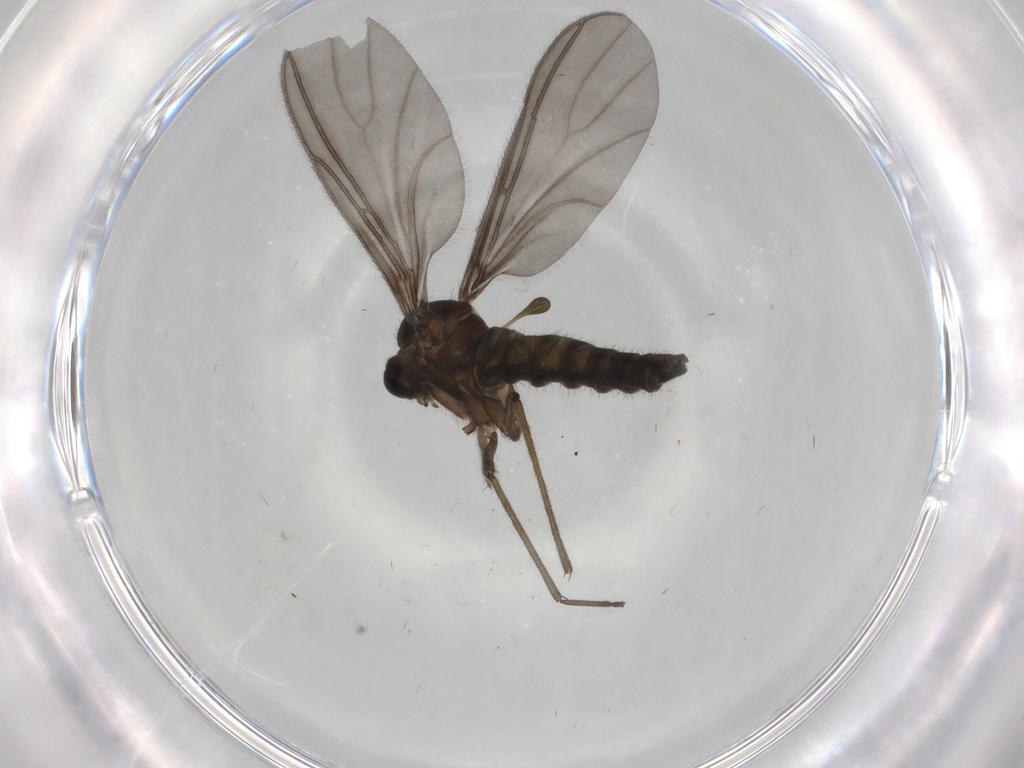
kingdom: Animalia
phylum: Arthropoda
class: Insecta
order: Diptera
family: Sciaridae
